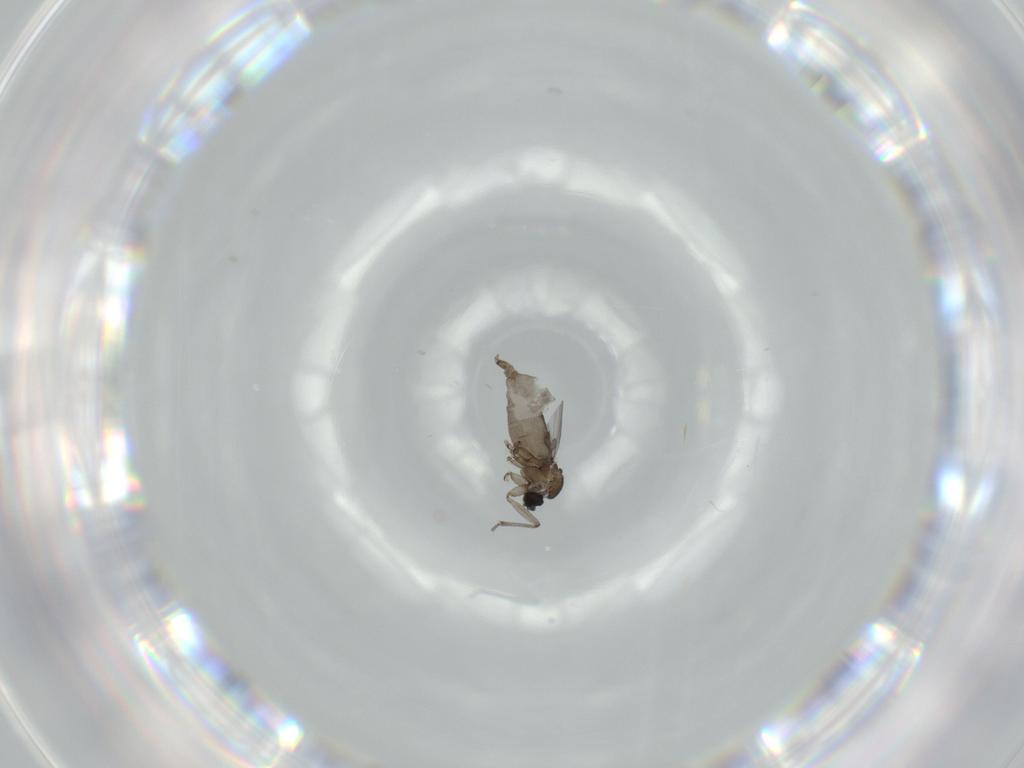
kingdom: Animalia
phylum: Arthropoda
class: Insecta
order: Diptera
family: Sciaridae
